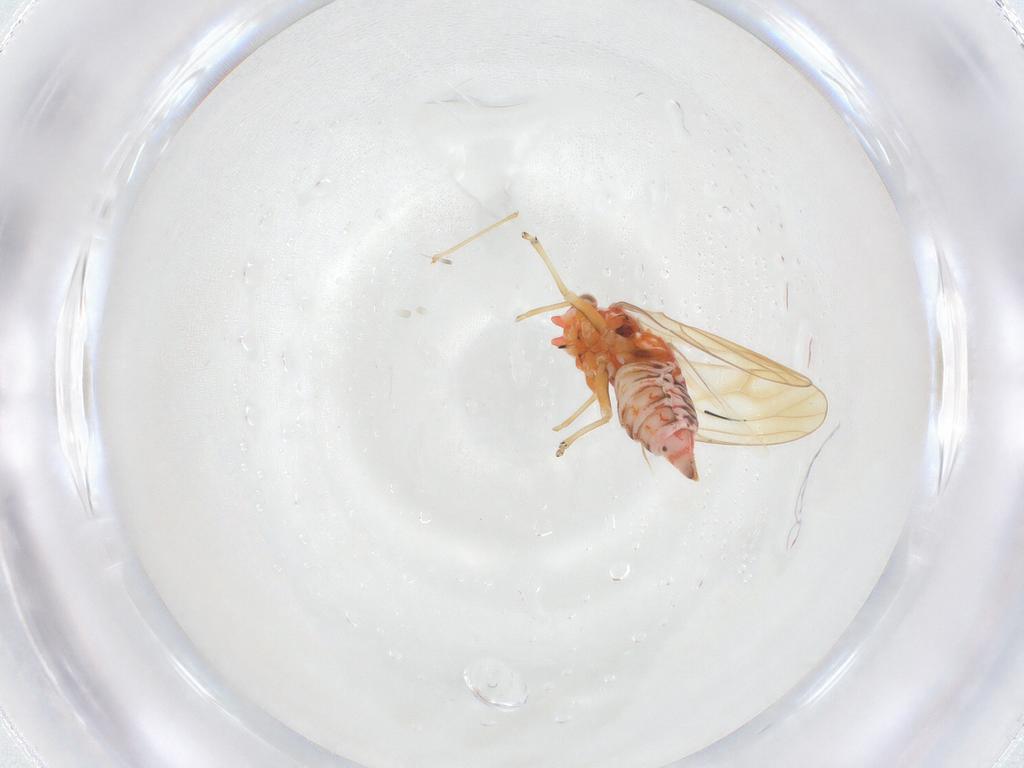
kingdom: Animalia
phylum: Arthropoda
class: Insecta
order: Hemiptera
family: Psyllidae
